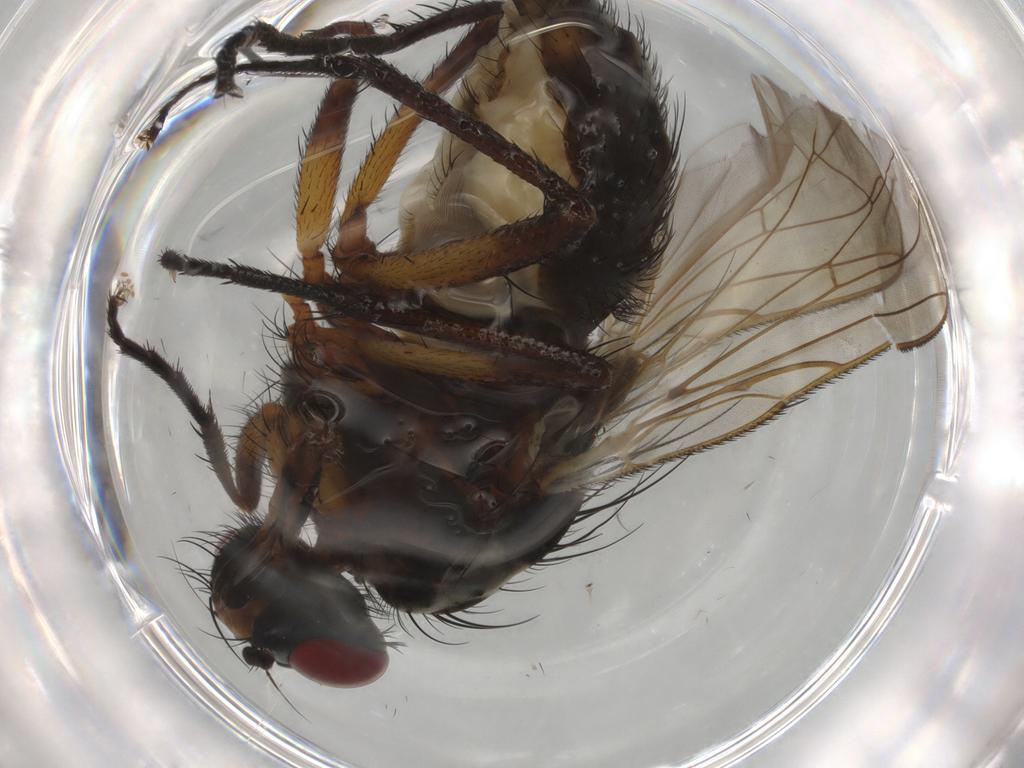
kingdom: Animalia
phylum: Arthropoda
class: Insecta
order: Diptera
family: Anthomyiidae
